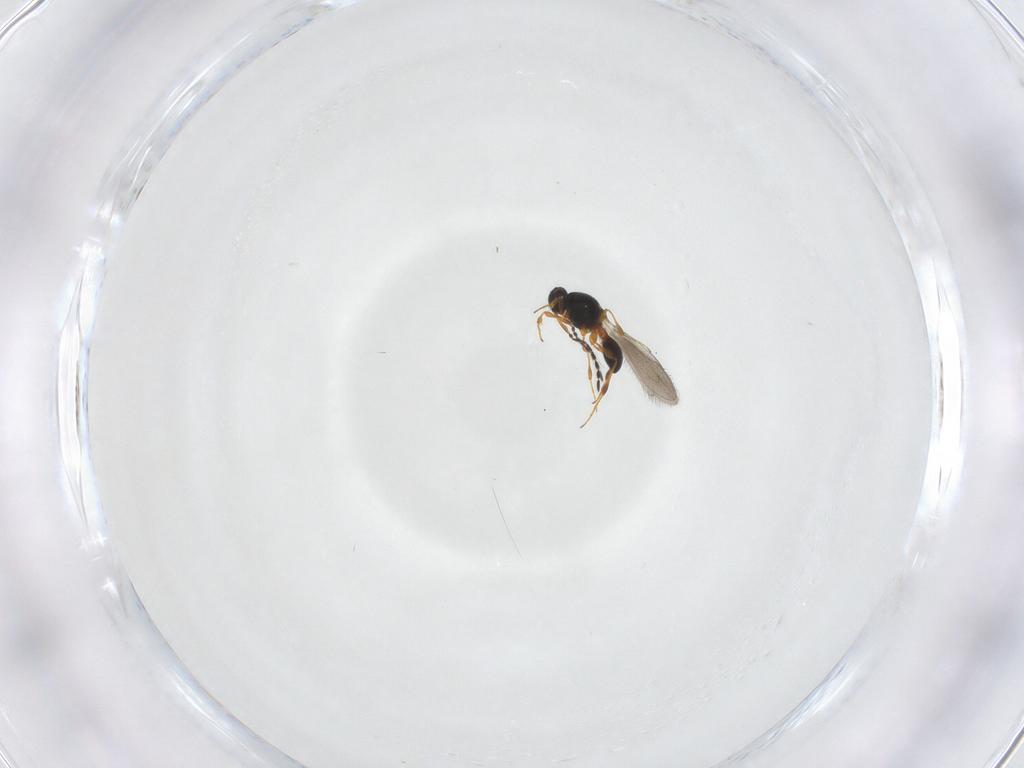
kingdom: Animalia
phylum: Arthropoda
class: Insecta
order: Hymenoptera
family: Platygastridae
